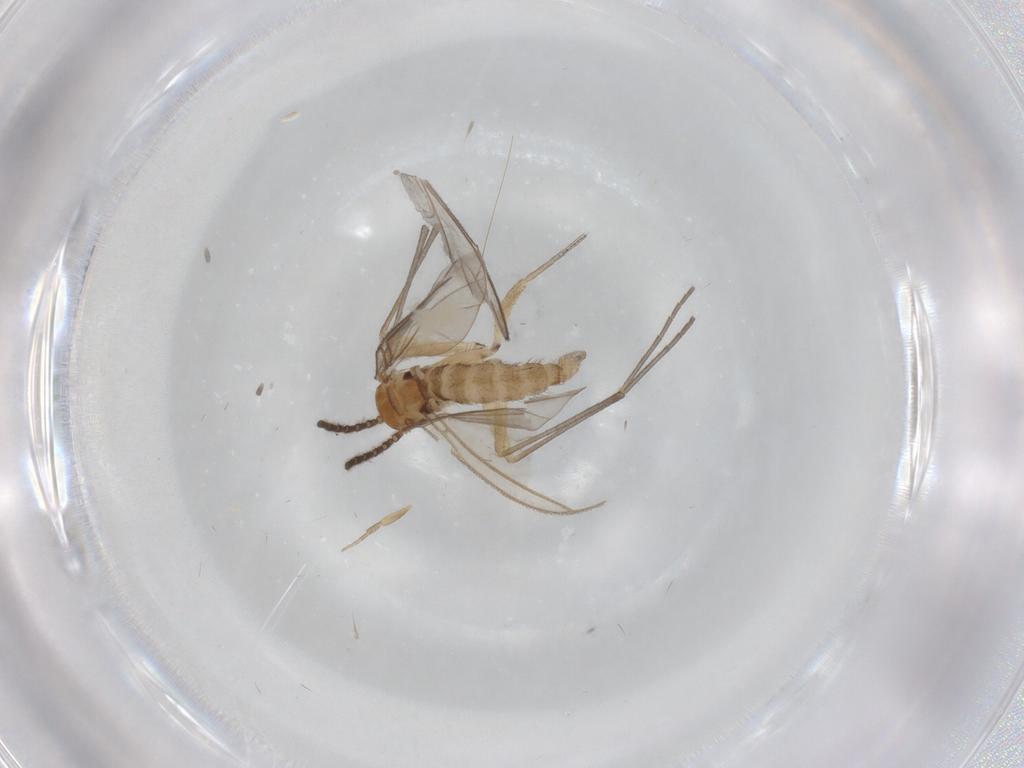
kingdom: Animalia
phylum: Arthropoda
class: Insecta
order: Diptera
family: Sciaridae
